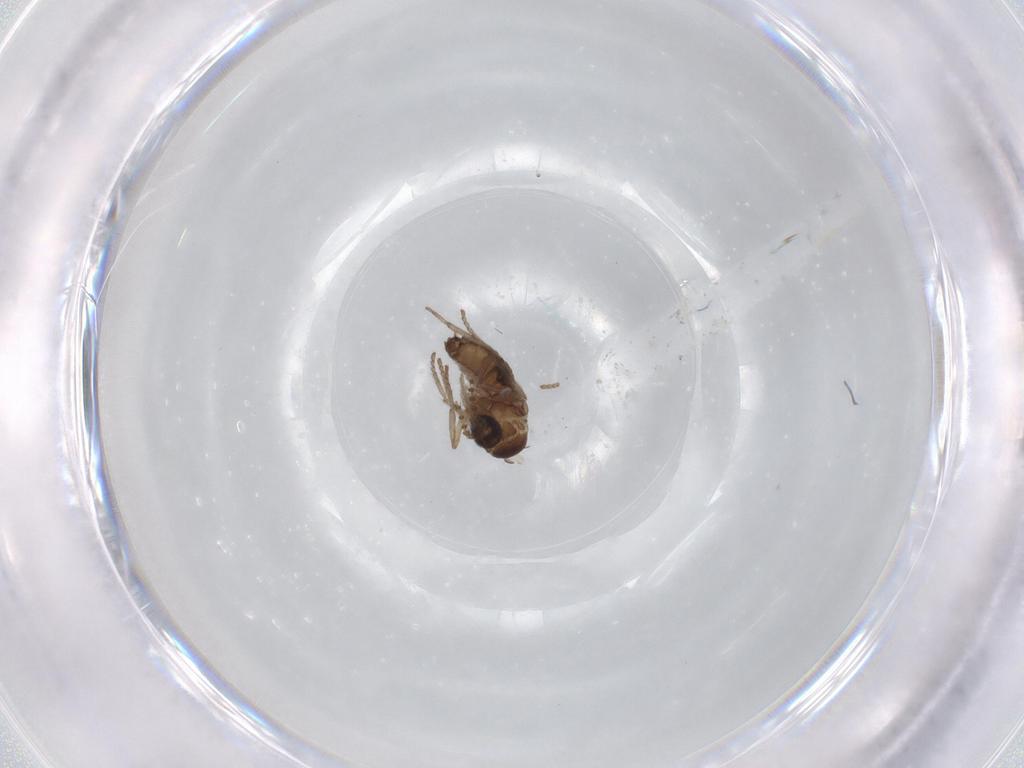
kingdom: Animalia
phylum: Arthropoda
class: Insecta
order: Diptera
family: Psychodidae
